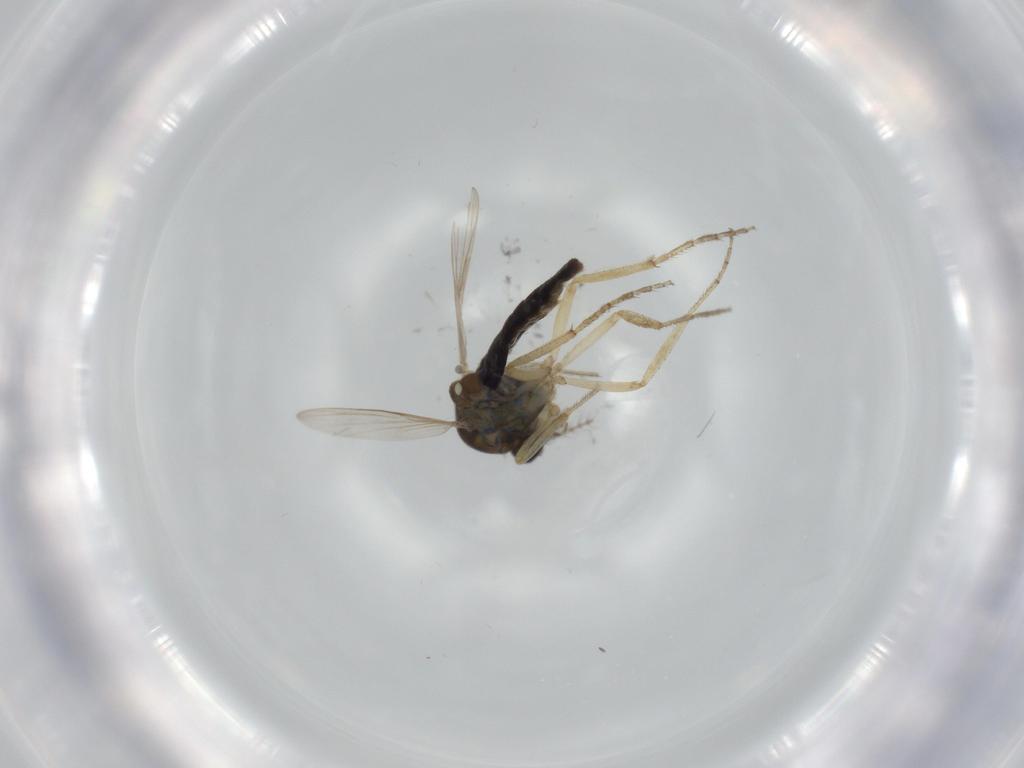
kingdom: Animalia
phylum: Arthropoda
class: Insecta
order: Diptera
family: Ceratopogonidae
